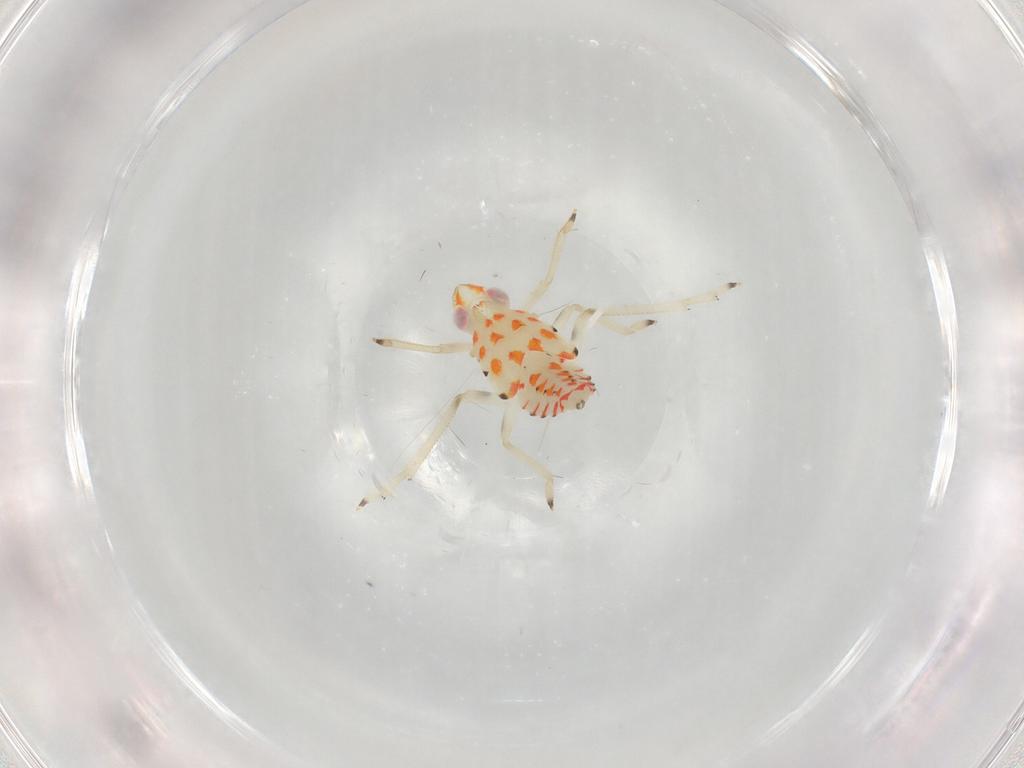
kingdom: Animalia
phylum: Arthropoda
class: Insecta
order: Hemiptera
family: Tropiduchidae
